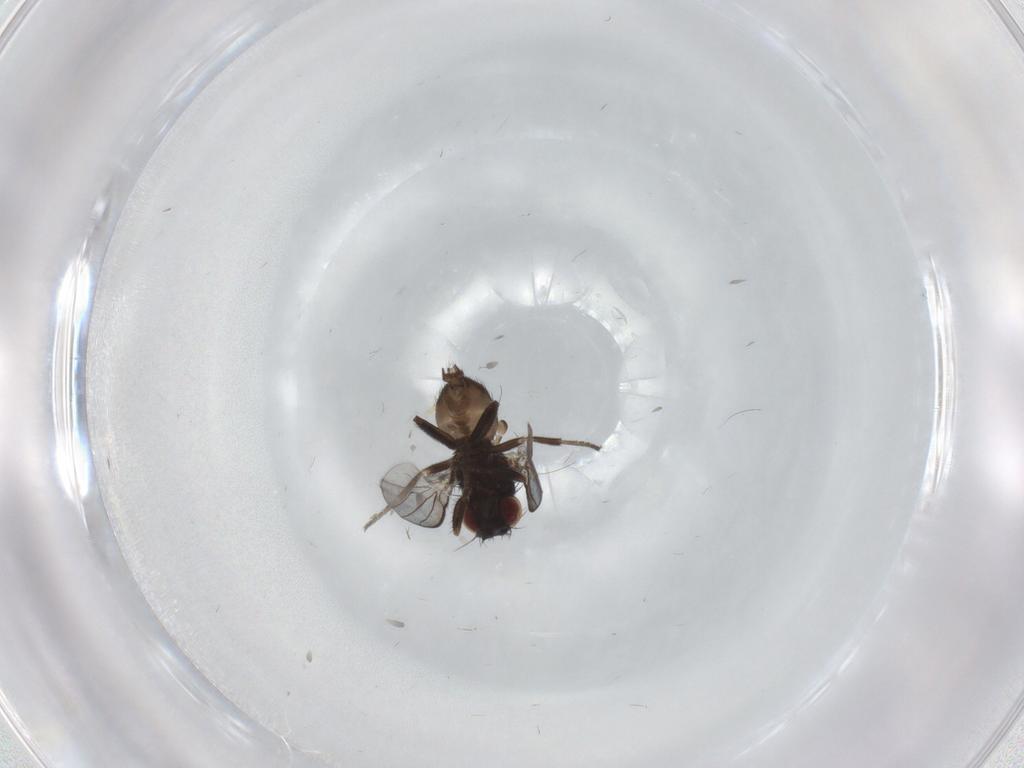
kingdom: Animalia
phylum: Arthropoda
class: Insecta
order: Diptera
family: Milichiidae
